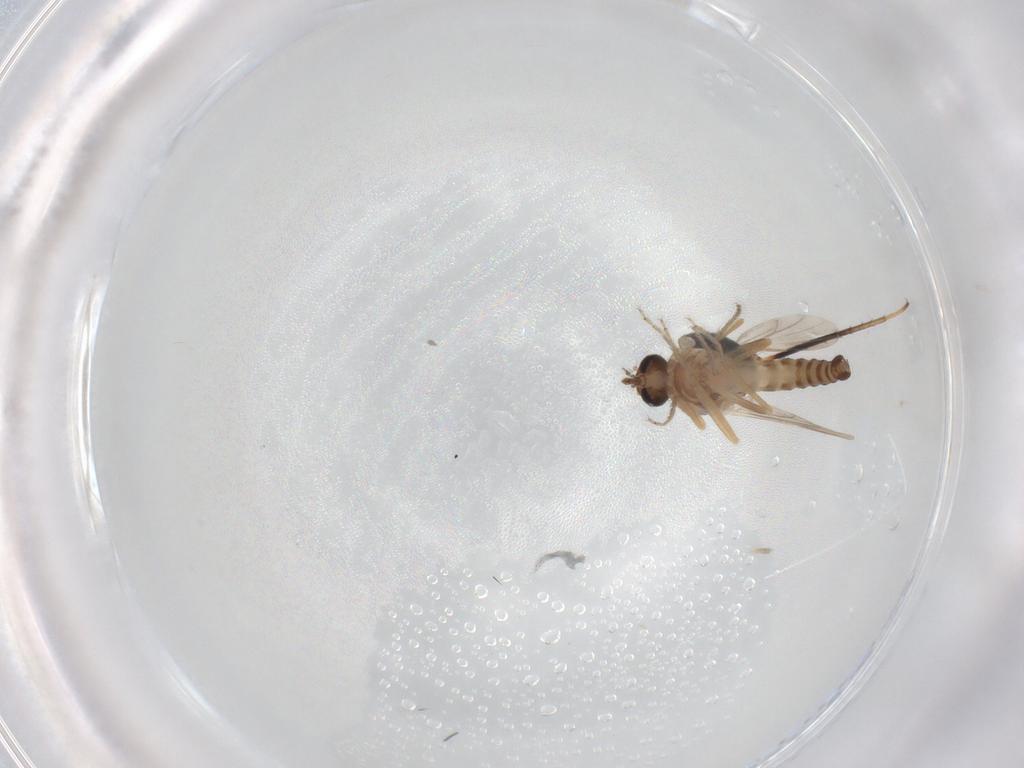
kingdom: Animalia
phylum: Arthropoda
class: Insecta
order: Diptera
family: Ceratopogonidae
